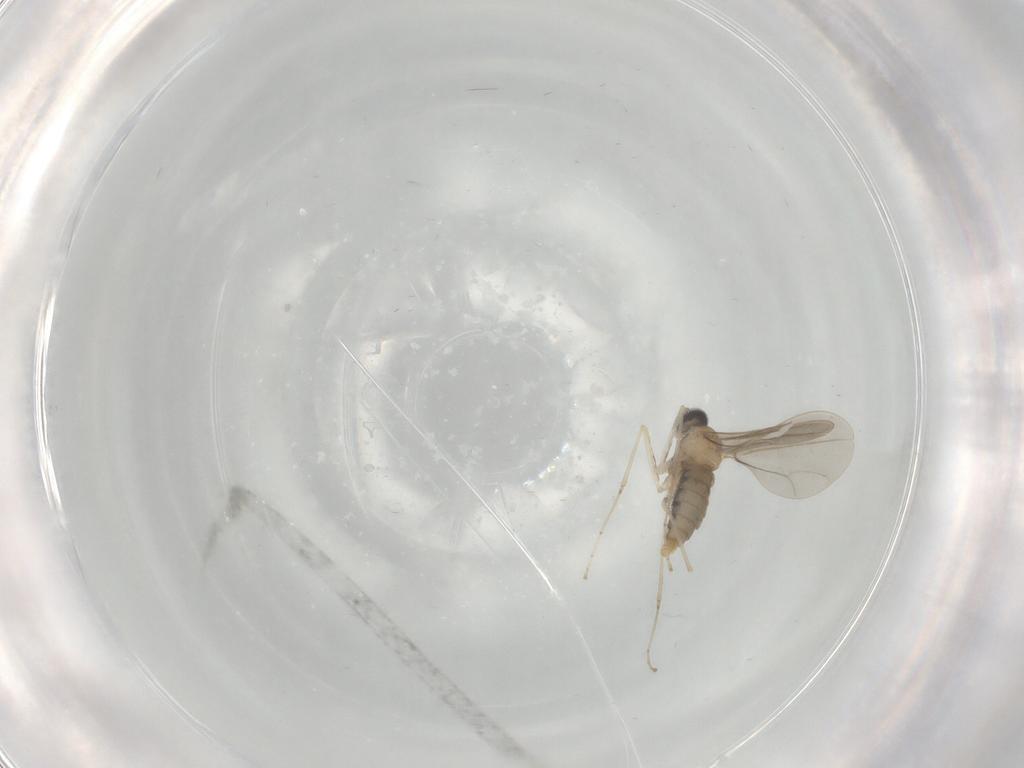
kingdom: Animalia
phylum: Arthropoda
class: Insecta
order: Diptera
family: Cecidomyiidae
